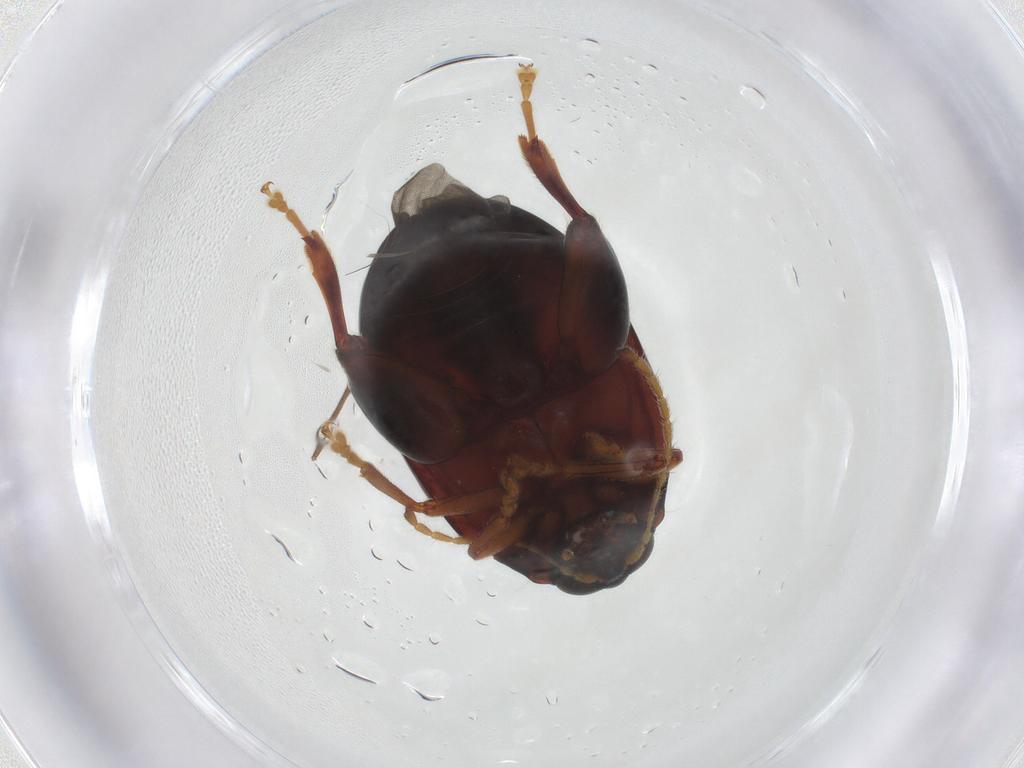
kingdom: Animalia
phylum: Arthropoda
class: Insecta
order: Coleoptera
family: Chrysomelidae
